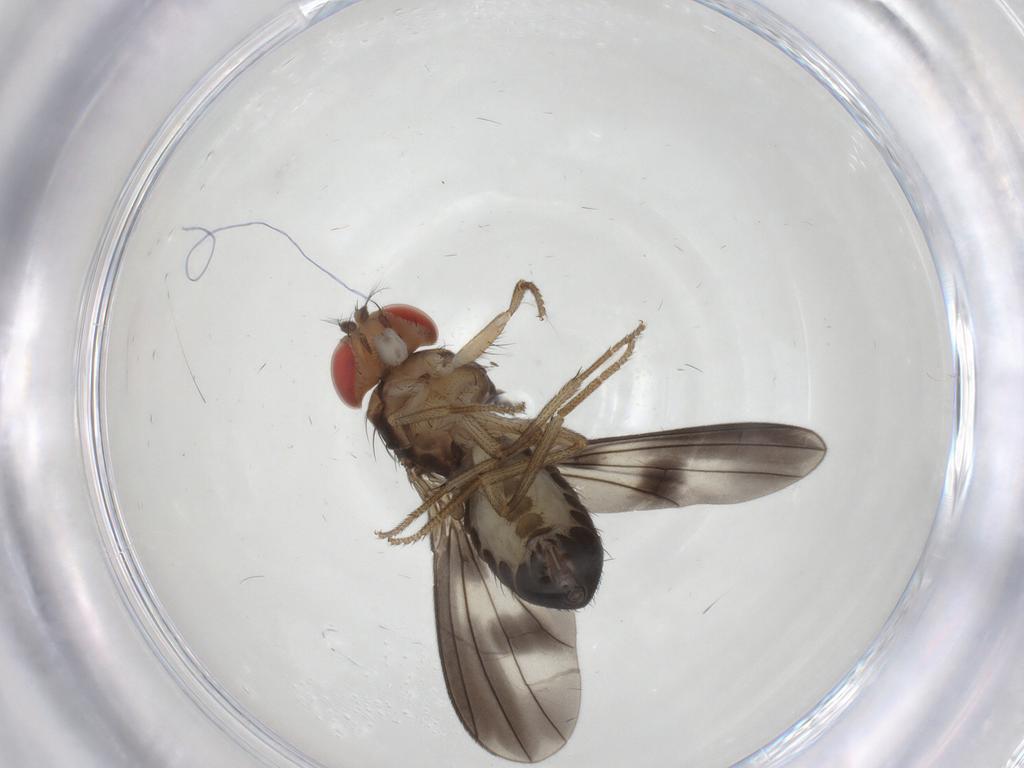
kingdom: Animalia
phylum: Arthropoda
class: Insecta
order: Diptera
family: Drosophilidae
